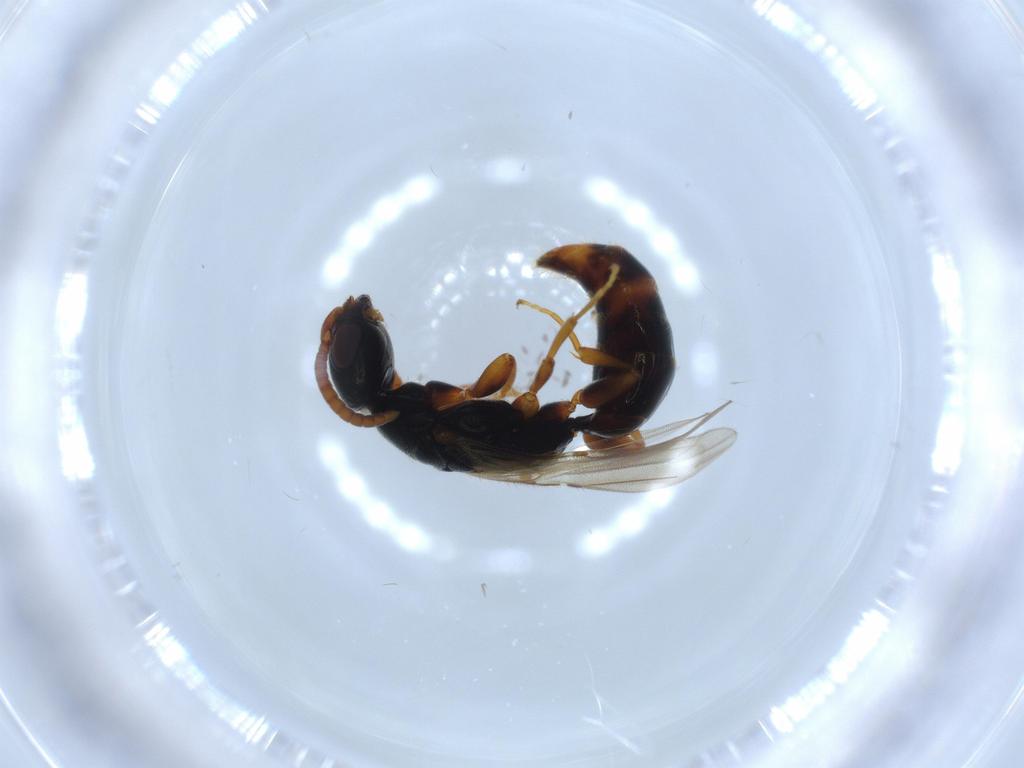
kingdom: Animalia
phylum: Arthropoda
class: Insecta
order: Hymenoptera
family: Bethylidae
